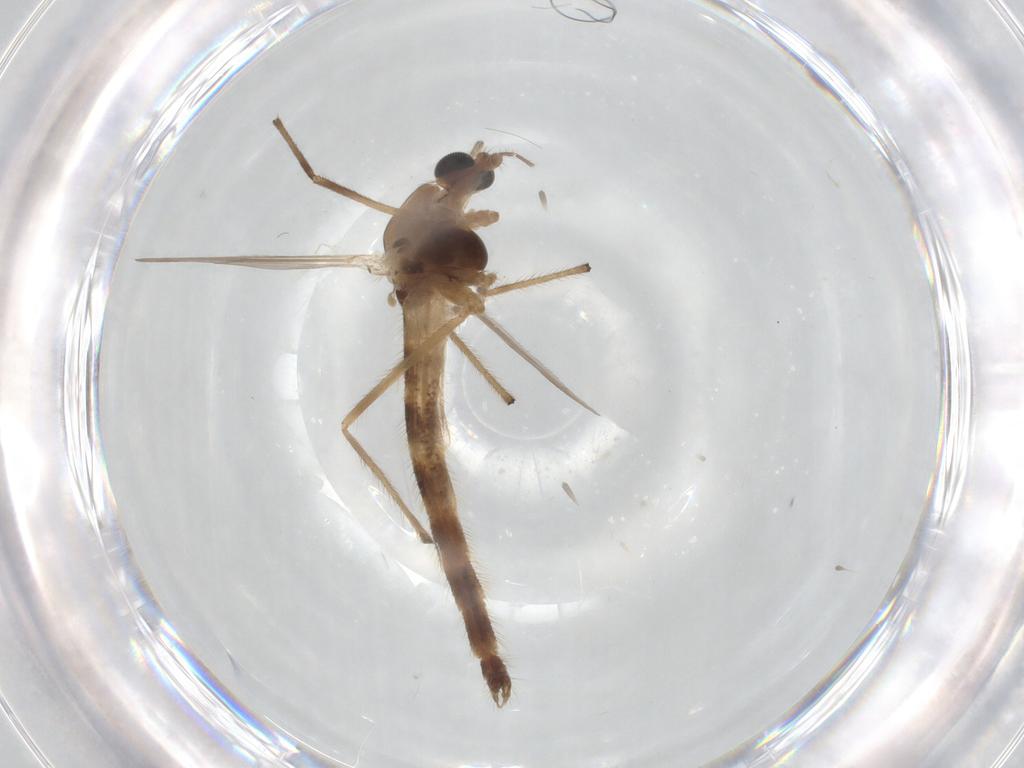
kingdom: Animalia
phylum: Arthropoda
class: Insecta
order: Diptera
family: Chironomidae
